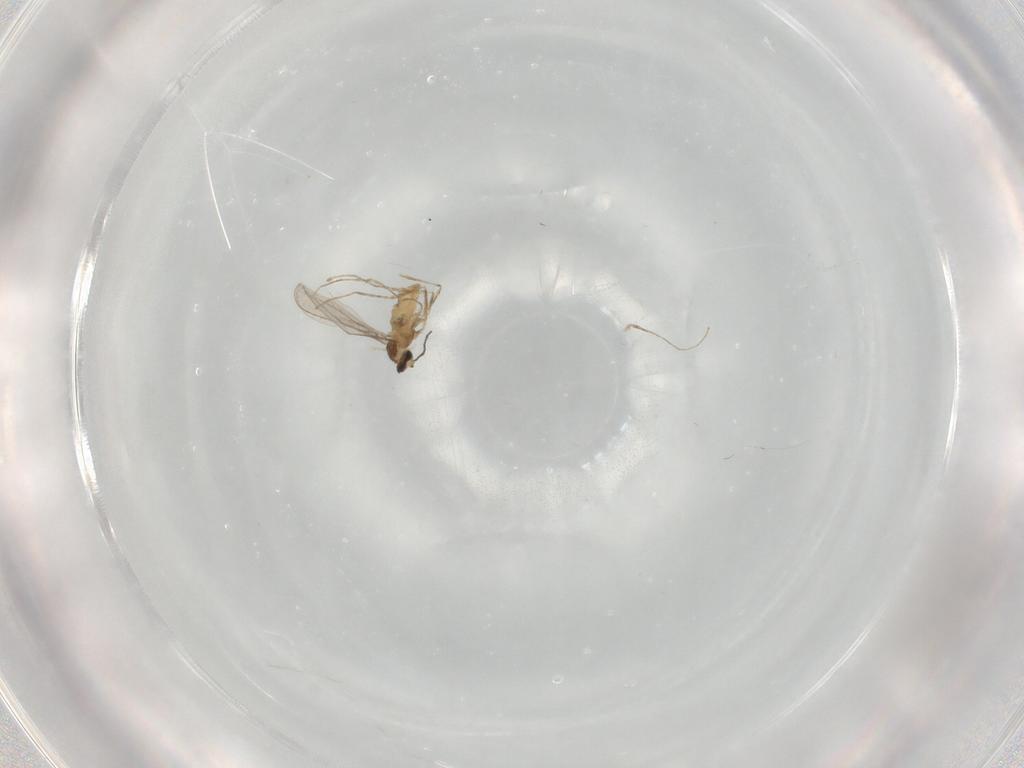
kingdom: Animalia
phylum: Arthropoda
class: Insecta
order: Diptera
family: Cecidomyiidae
